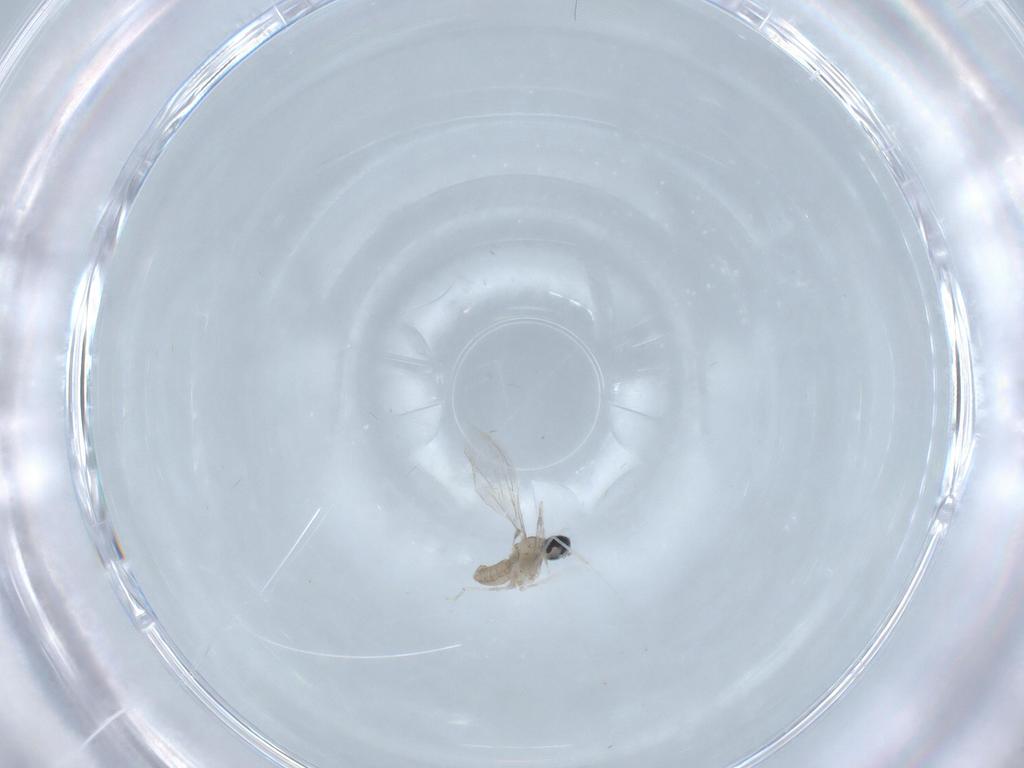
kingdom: Animalia
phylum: Arthropoda
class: Insecta
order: Diptera
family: Cecidomyiidae
